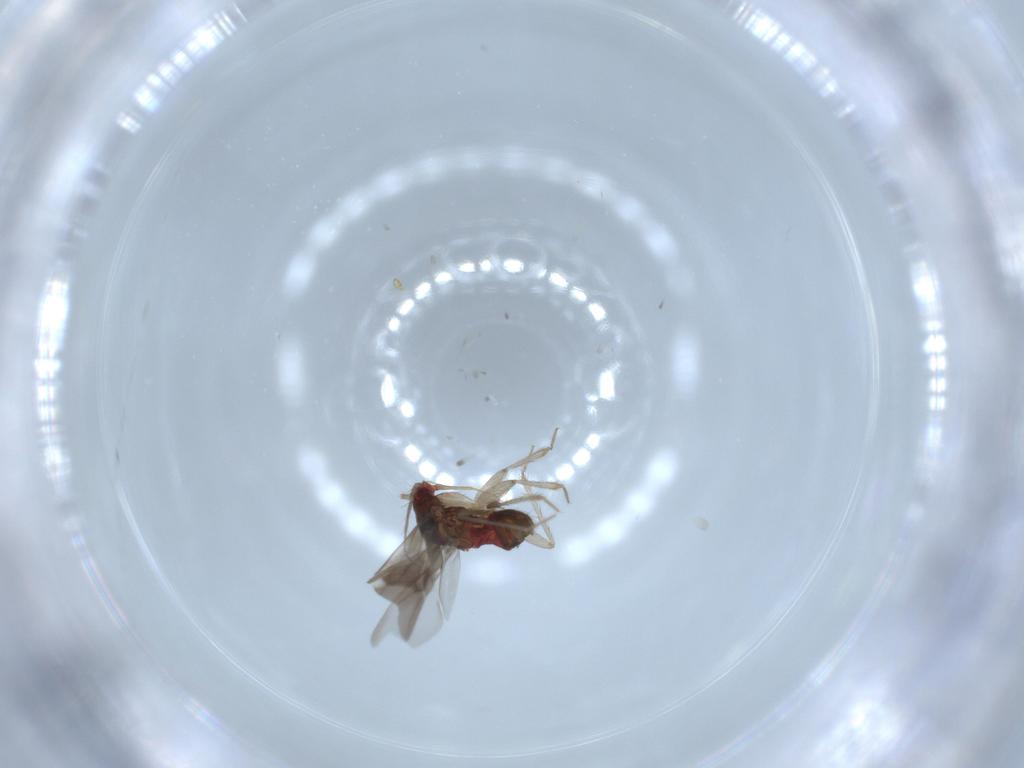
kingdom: Animalia
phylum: Arthropoda
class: Insecta
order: Hemiptera
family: Ceratocombidae
